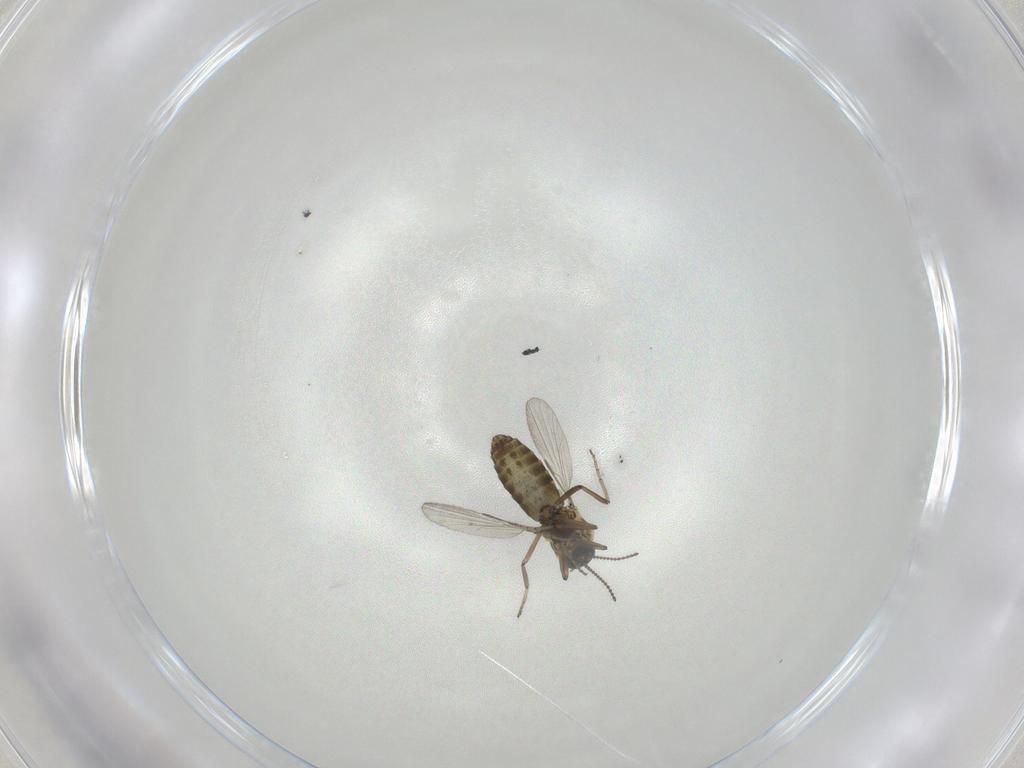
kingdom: Animalia
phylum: Arthropoda
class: Insecta
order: Diptera
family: Ceratopogonidae
